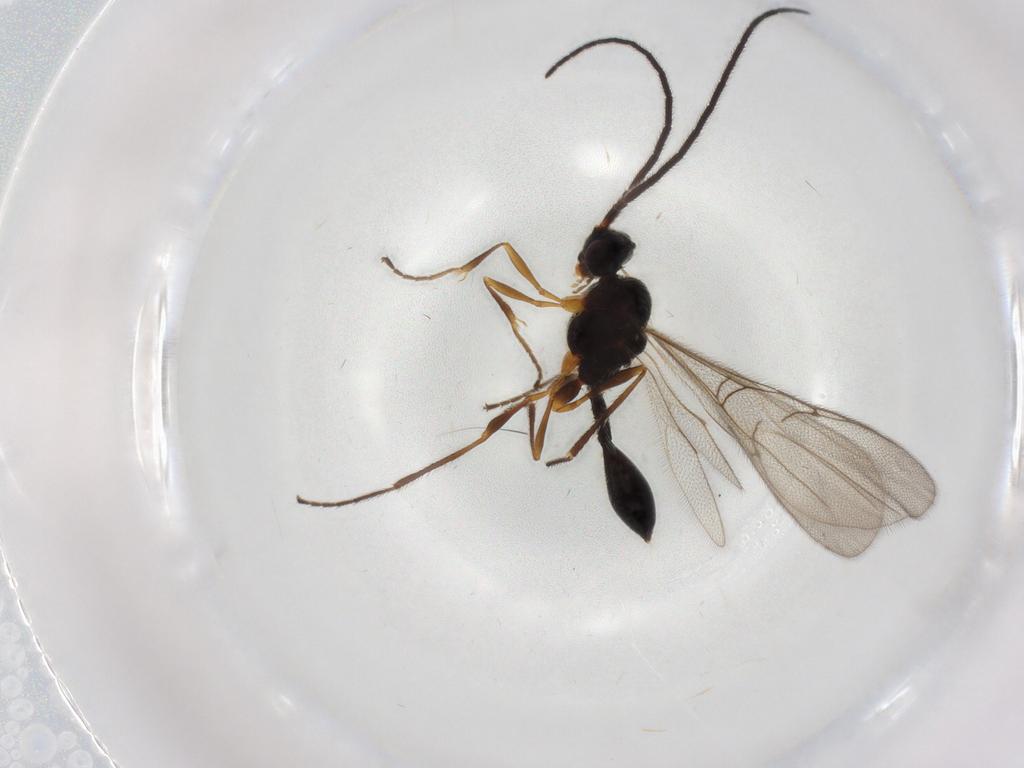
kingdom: Animalia
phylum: Arthropoda
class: Insecta
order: Hymenoptera
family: Diapriidae
